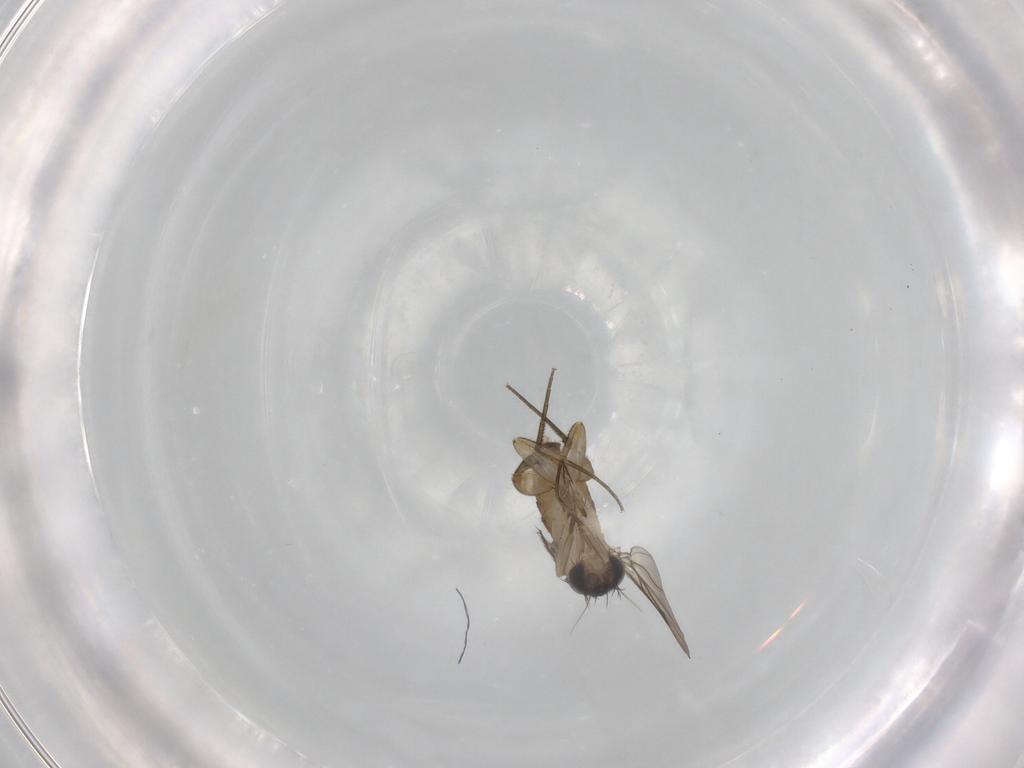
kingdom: Animalia
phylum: Arthropoda
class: Insecta
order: Diptera
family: Phoridae
